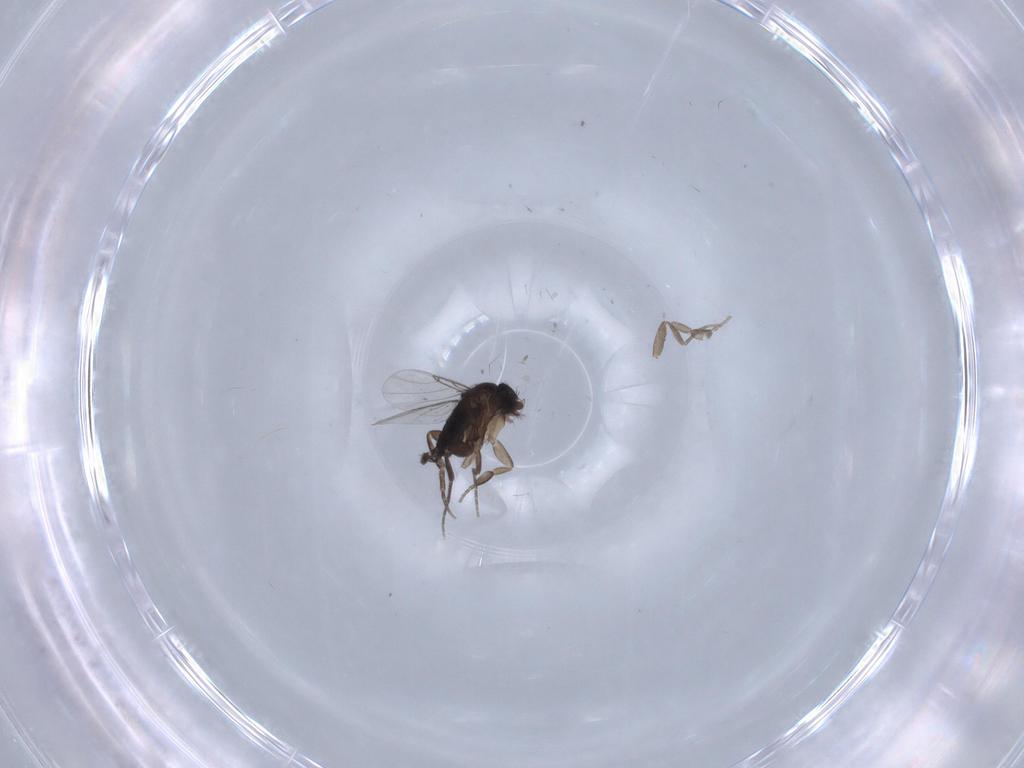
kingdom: Animalia
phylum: Arthropoda
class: Insecta
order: Diptera
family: Phoridae
